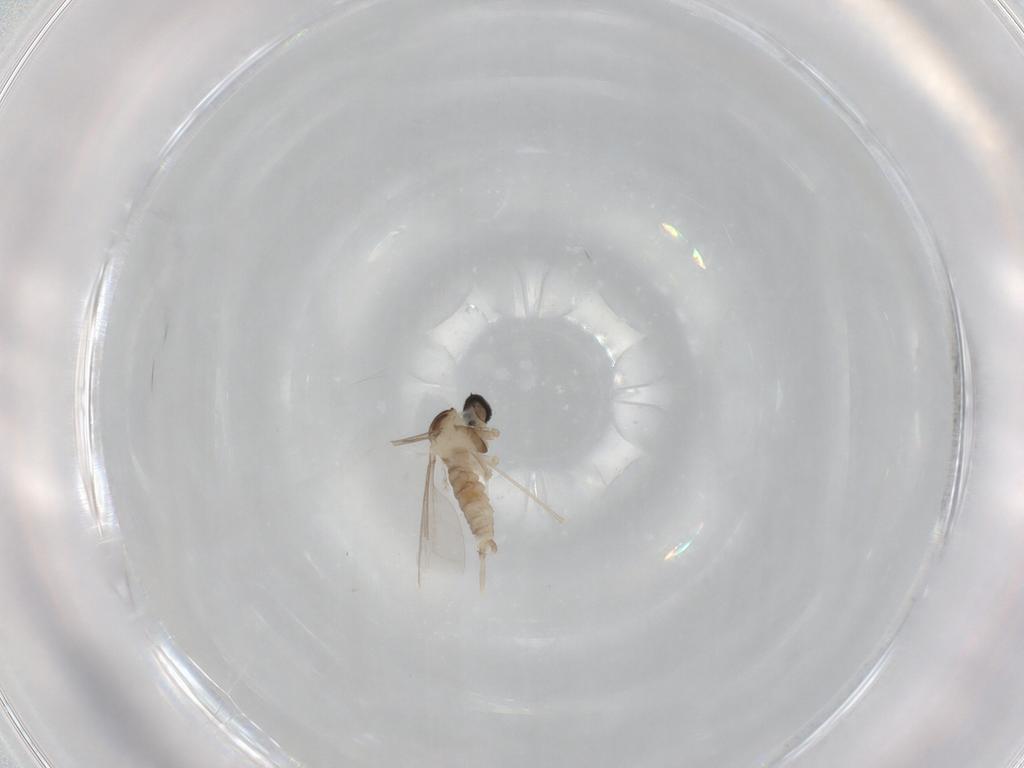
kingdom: Animalia
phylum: Arthropoda
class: Insecta
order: Diptera
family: Cecidomyiidae
